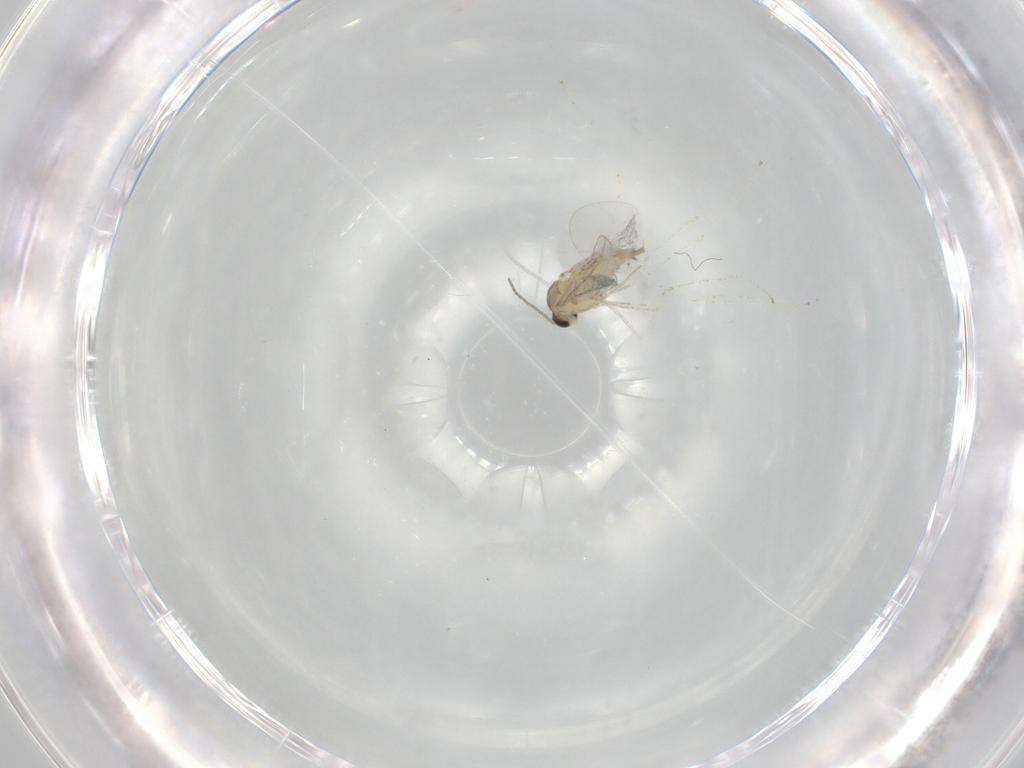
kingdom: Animalia
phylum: Arthropoda
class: Insecta
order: Diptera
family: Cecidomyiidae
